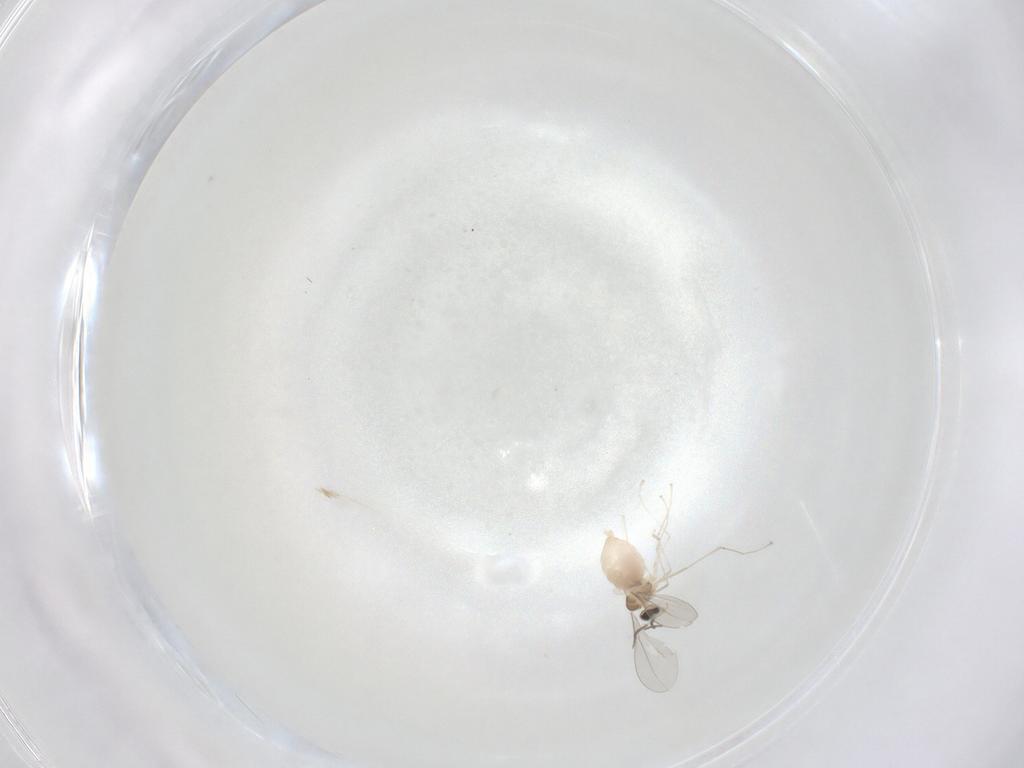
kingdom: Animalia
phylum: Arthropoda
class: Insecta
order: Diptera
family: Cecidomyiidae
